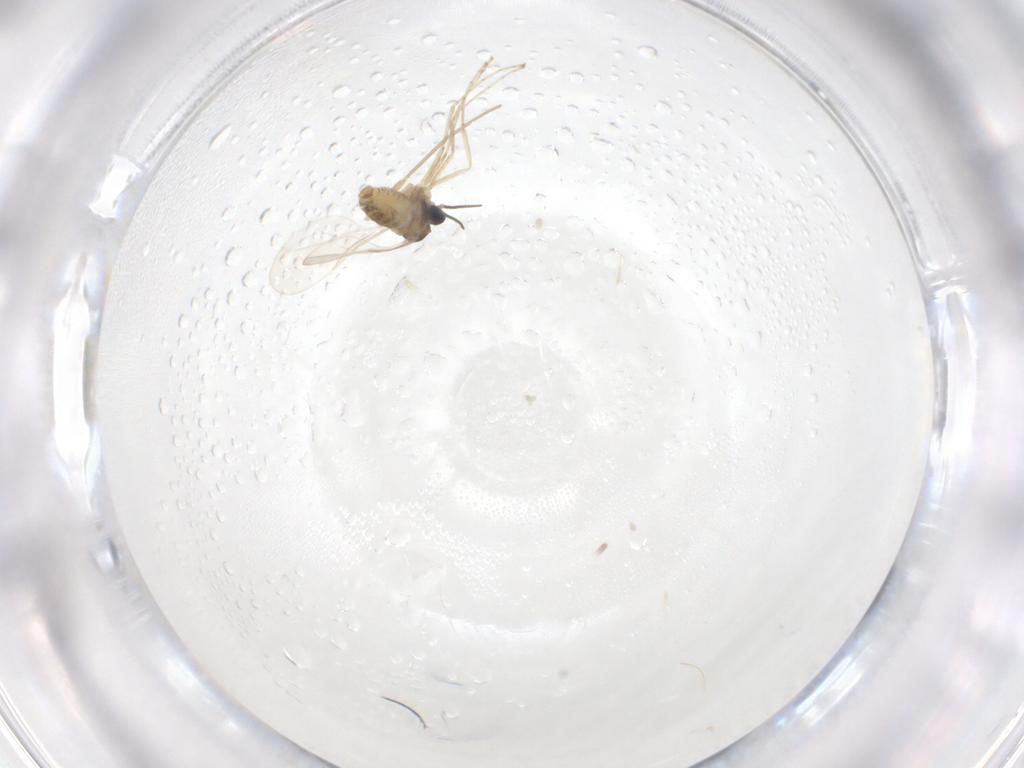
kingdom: Animalia
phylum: Arthropoda
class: Insecta
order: Diptera
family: Cecidomyiidae
